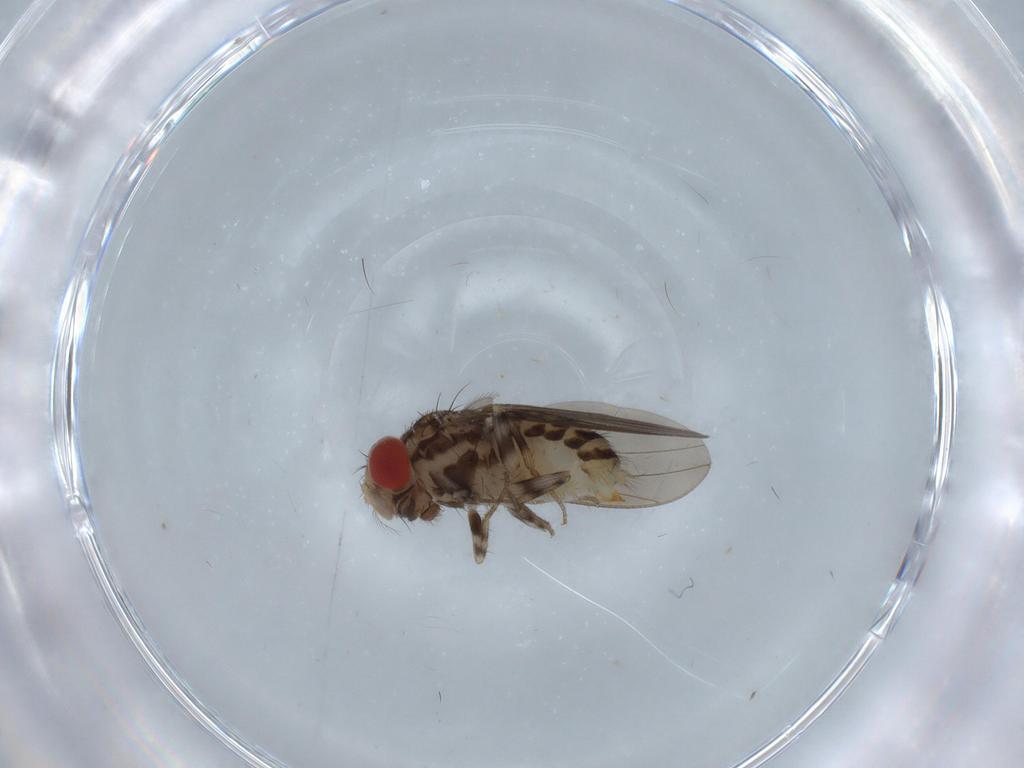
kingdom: Animalia
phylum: Arthropoda
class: Insecta
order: Diptera
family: Drosophilidae
